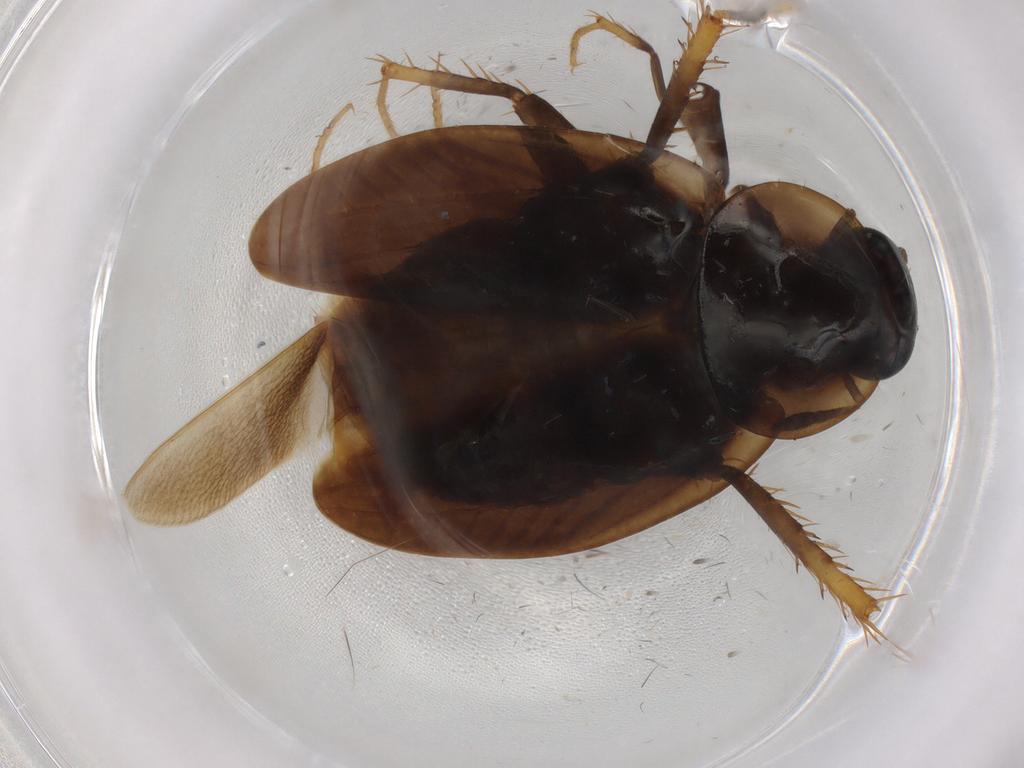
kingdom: Animalia
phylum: Arthropoda
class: Insecta
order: Blattodea
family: Ectobiidae
